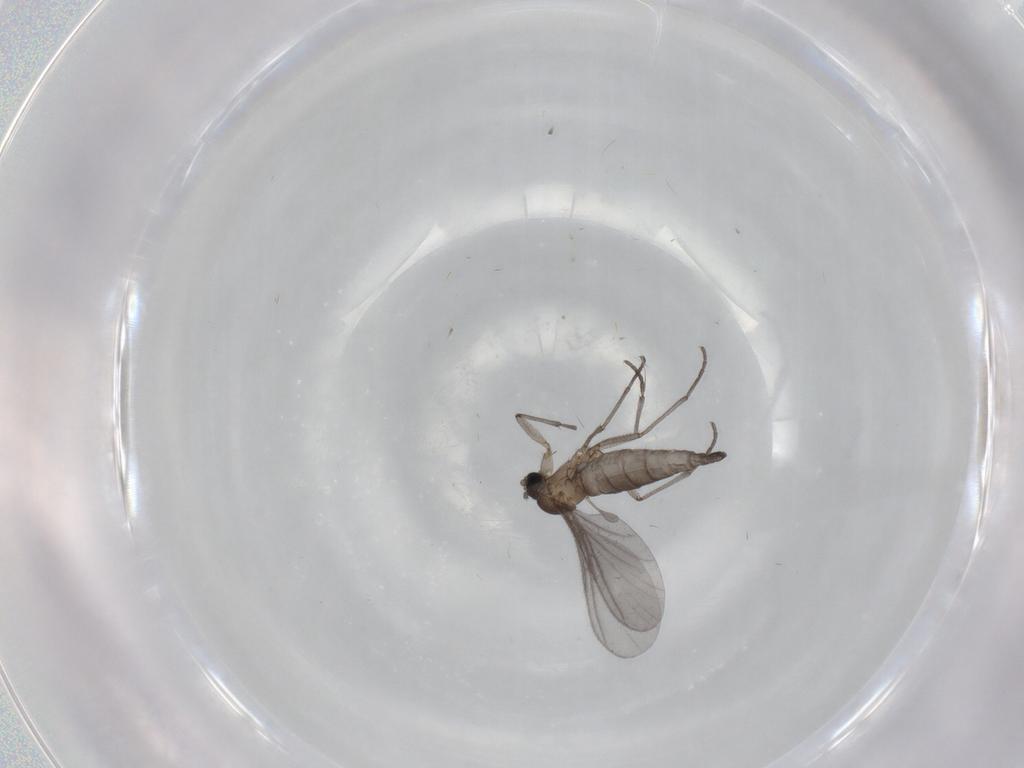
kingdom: Animalia
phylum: Arthropoda
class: Insecta
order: Diptera
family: Sciaridae
